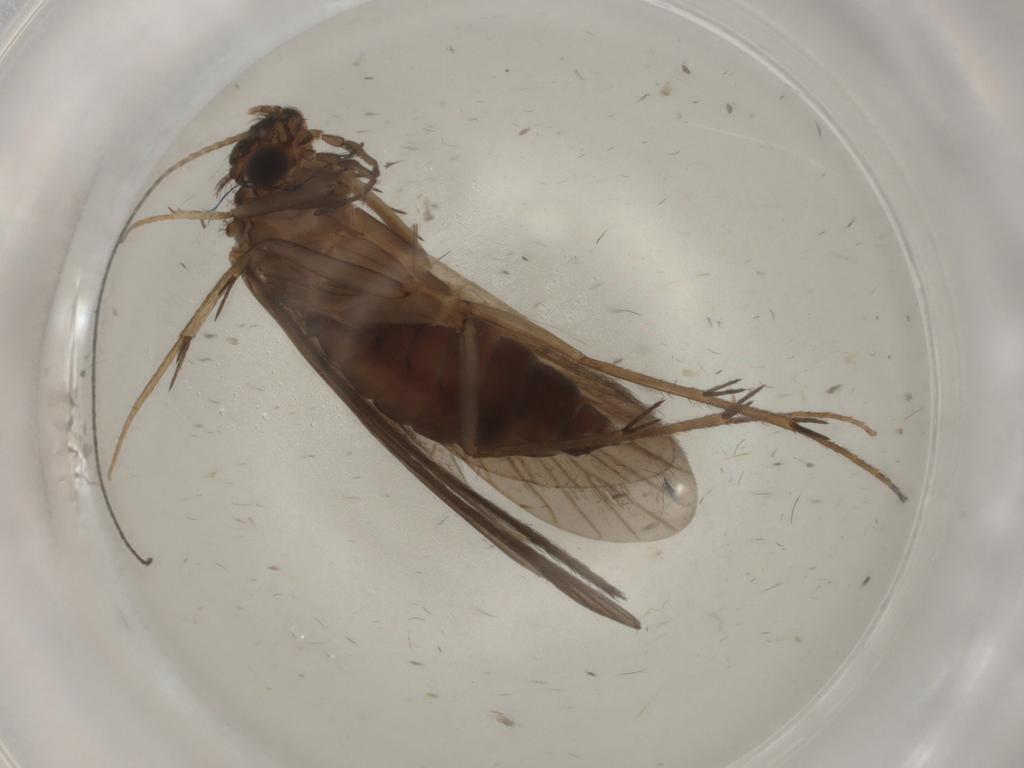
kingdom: Animalia
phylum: Arthropoda
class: Insecta
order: Trichoptera
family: Philopotamidae
